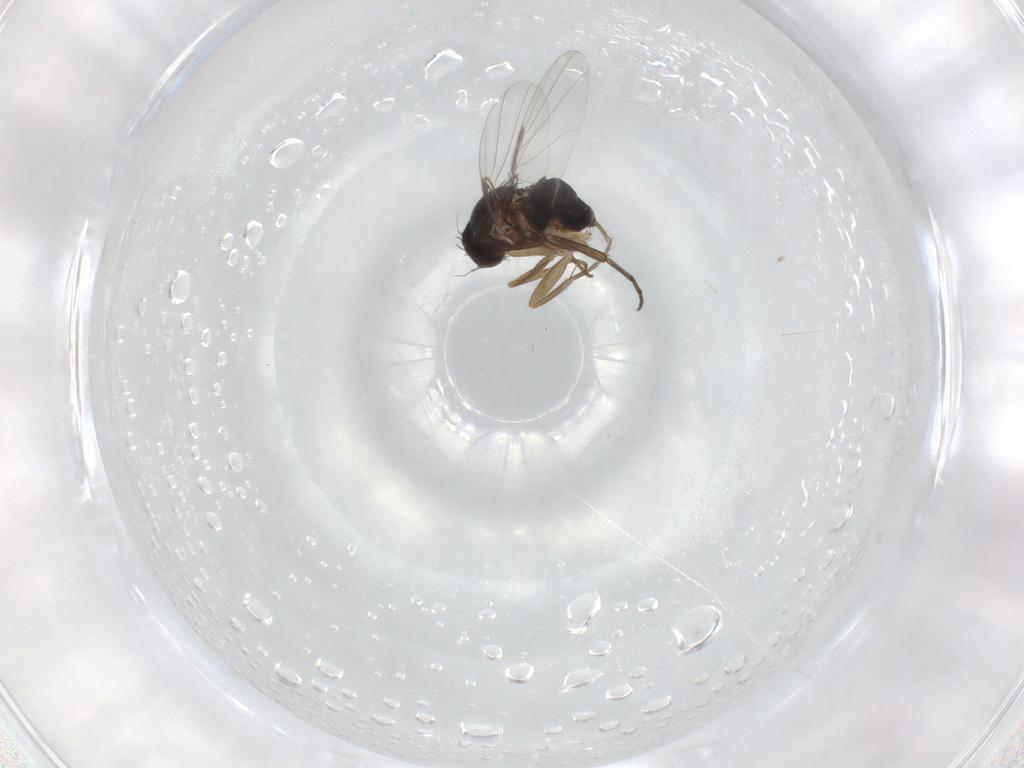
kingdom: Animalia
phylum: Arthropoda
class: Insecta
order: Diptera
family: Phoridae
